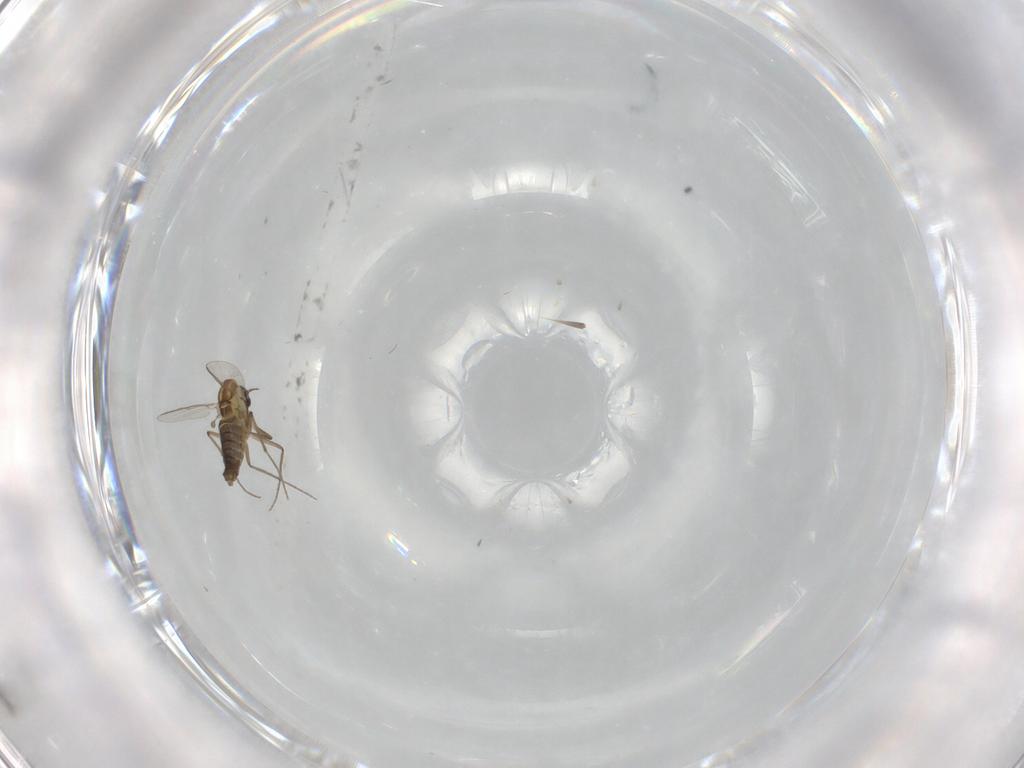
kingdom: Animalia
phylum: Arthropoda
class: Insecta
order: Diptera
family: Chironomidae
